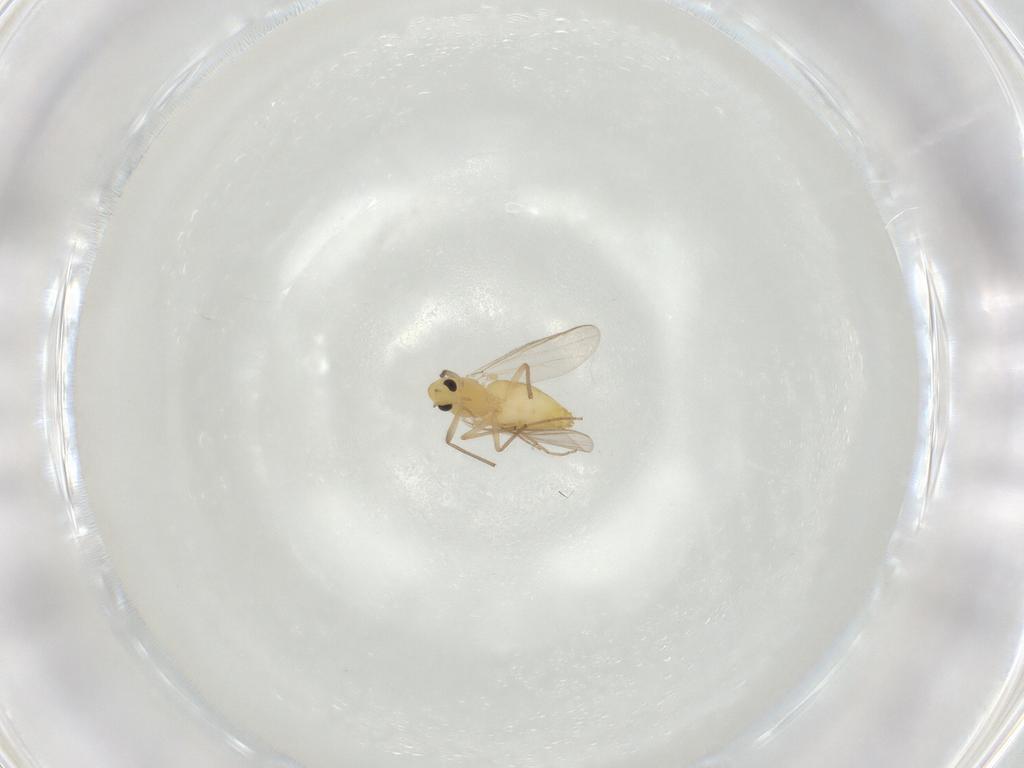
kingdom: Animalia
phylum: Arthropoda
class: Insecta
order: Diptera
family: Chironomidae
